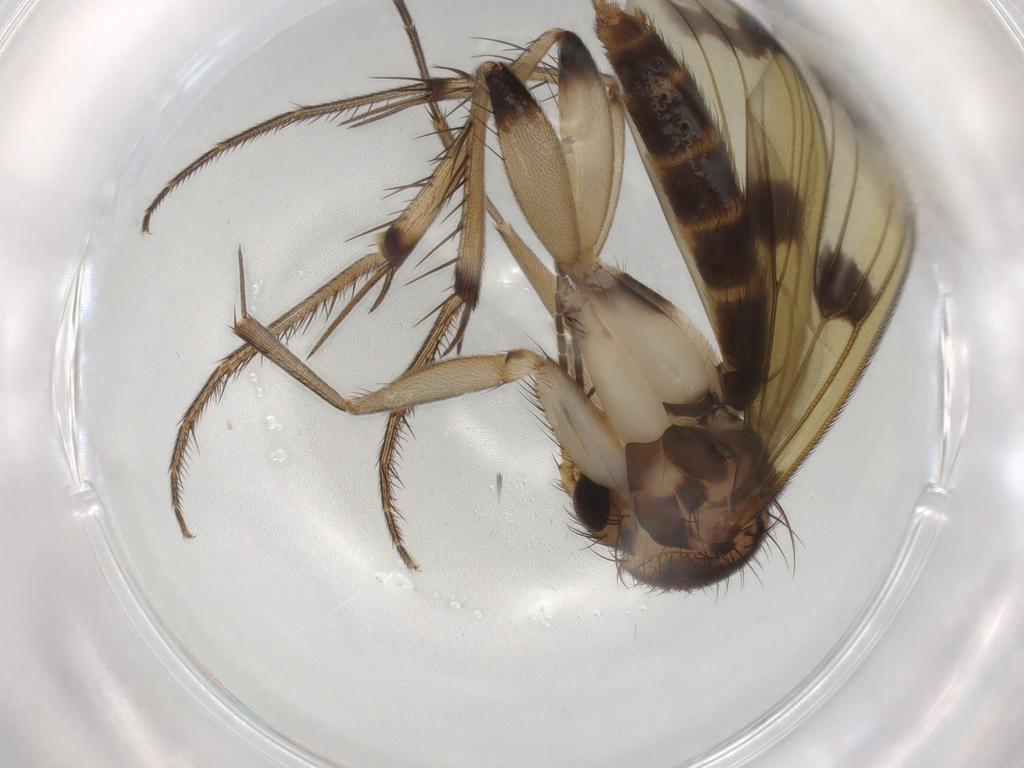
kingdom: Animalia
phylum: Arthropoda
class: Insecta
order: Diptera
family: Mycetophilidae
